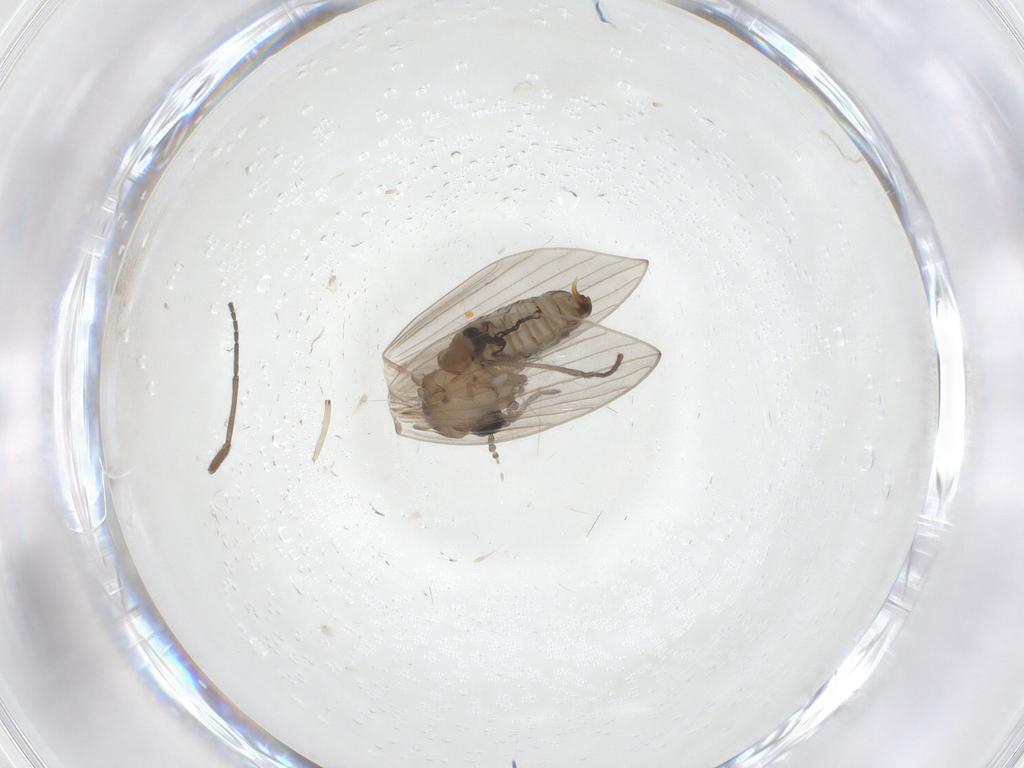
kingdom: Animalia
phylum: Arthropoda
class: Insecta
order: Diptera
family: Psychodidae
